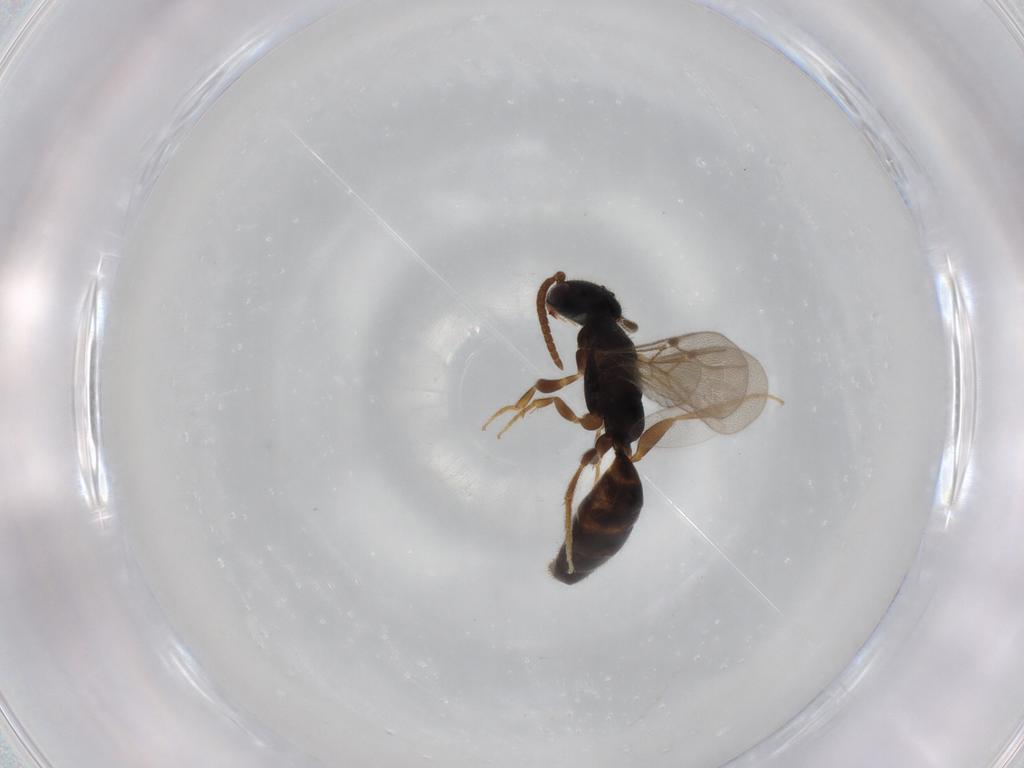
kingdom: Animalia
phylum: Arthropoda
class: Insecta
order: Hymenoptera
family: Bethylidae
